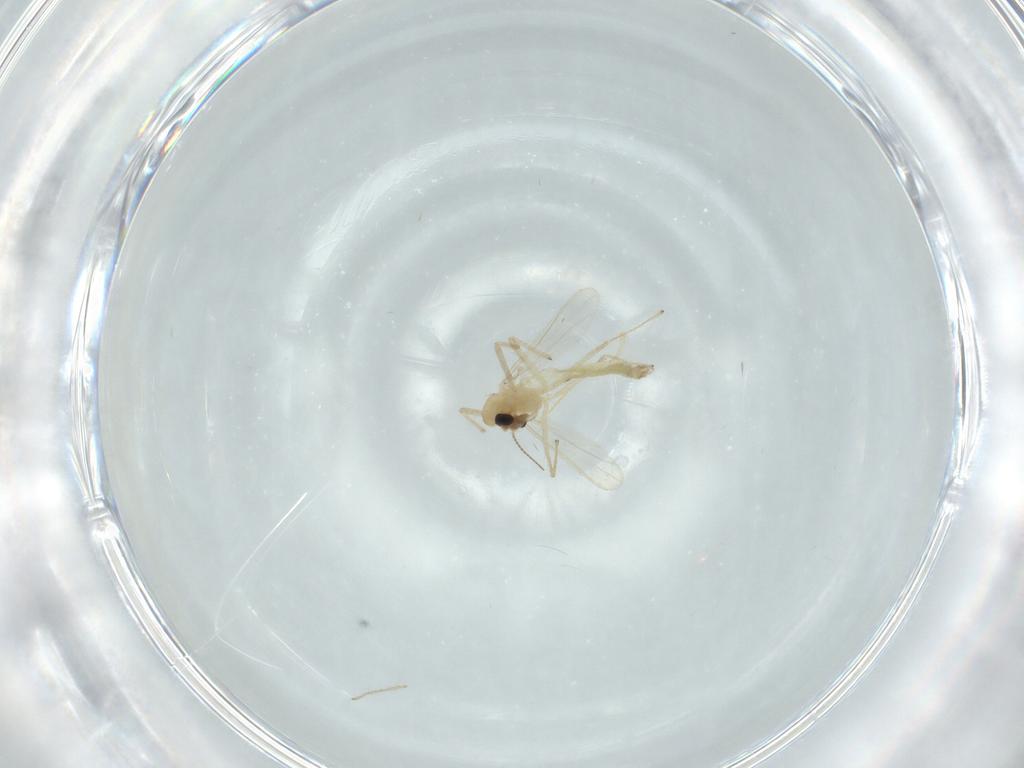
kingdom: Animalia
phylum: Arthropoda
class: Insecta
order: Diptera
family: Chironomidae
